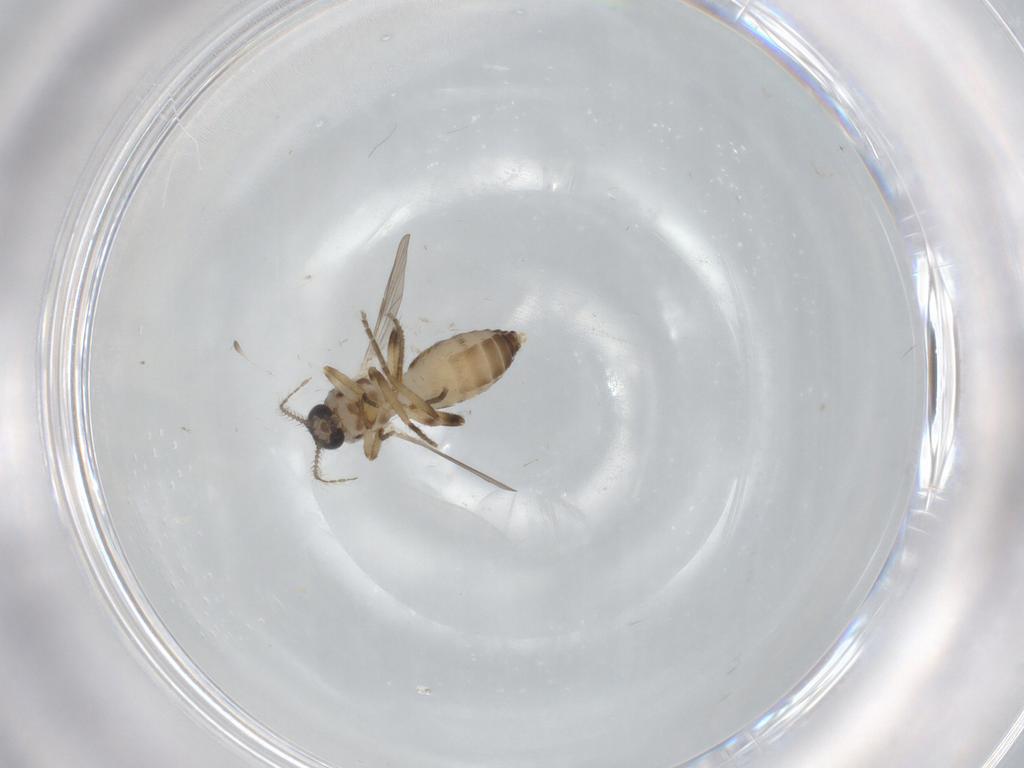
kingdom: Animalia
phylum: Arthropoda
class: Insecta
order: Diptera
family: Ceratopogonidae
